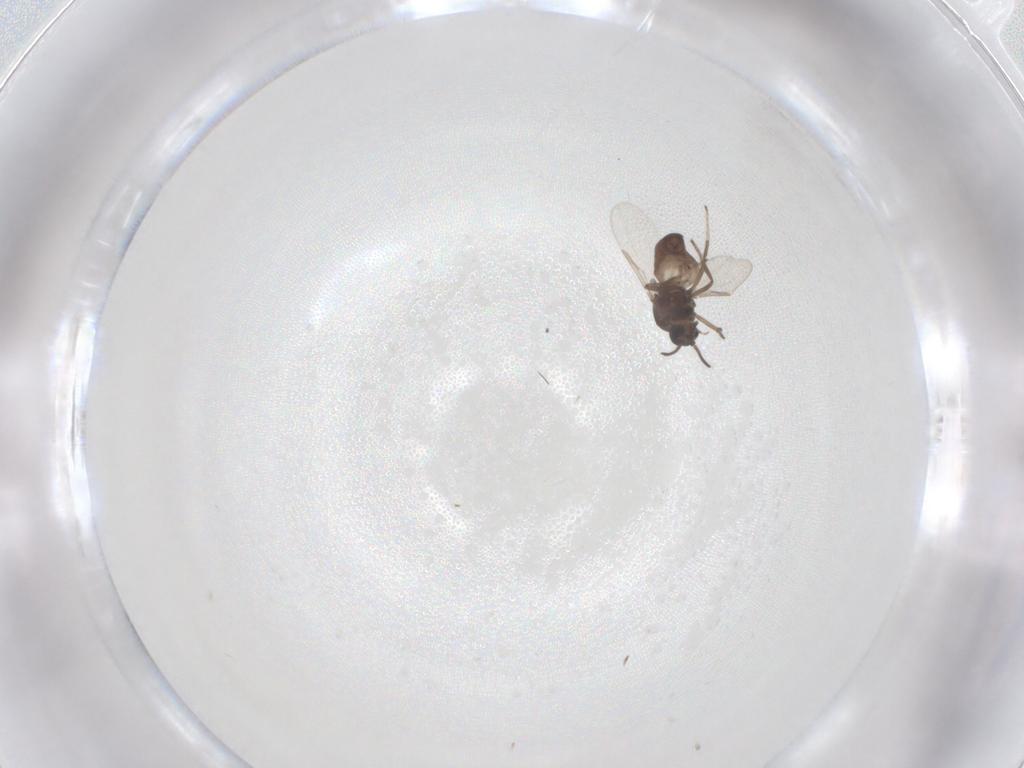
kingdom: Animalia
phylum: Arthropoda
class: Insecta
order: Diptera
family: Ceratopogonidae
